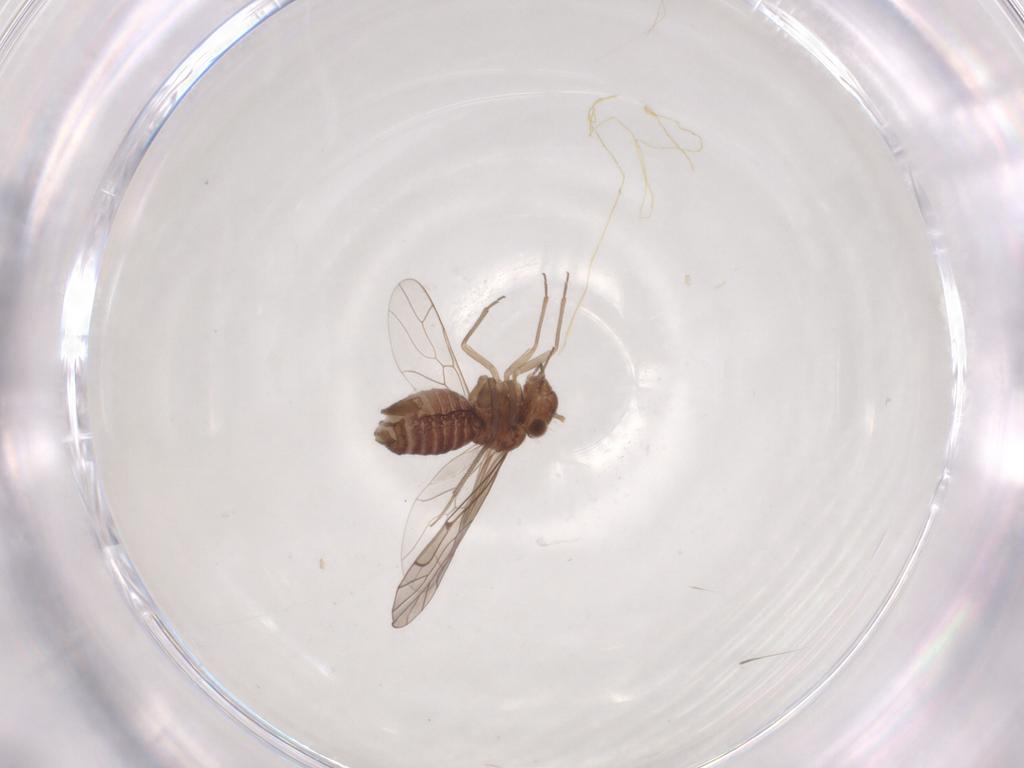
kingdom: Animalia
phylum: Arthropoda
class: Insecta
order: Psocodea
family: Lachesillidae
